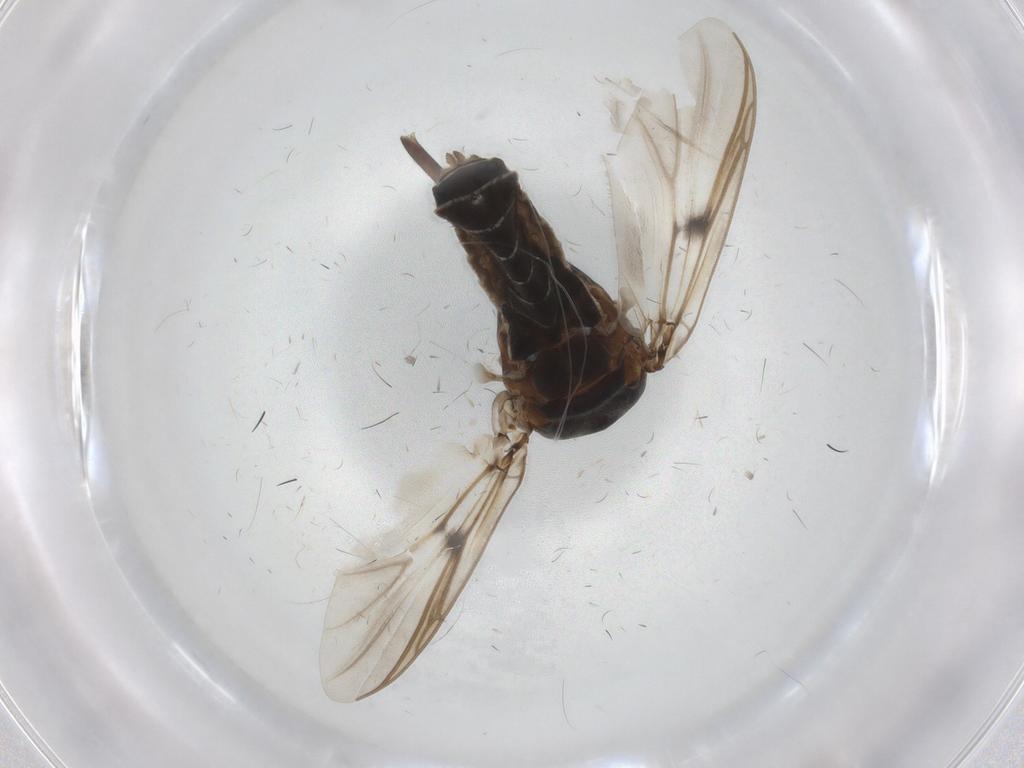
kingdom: Animalia
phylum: Arthropoda
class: Insecta
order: Diptera
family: Chironomidae
